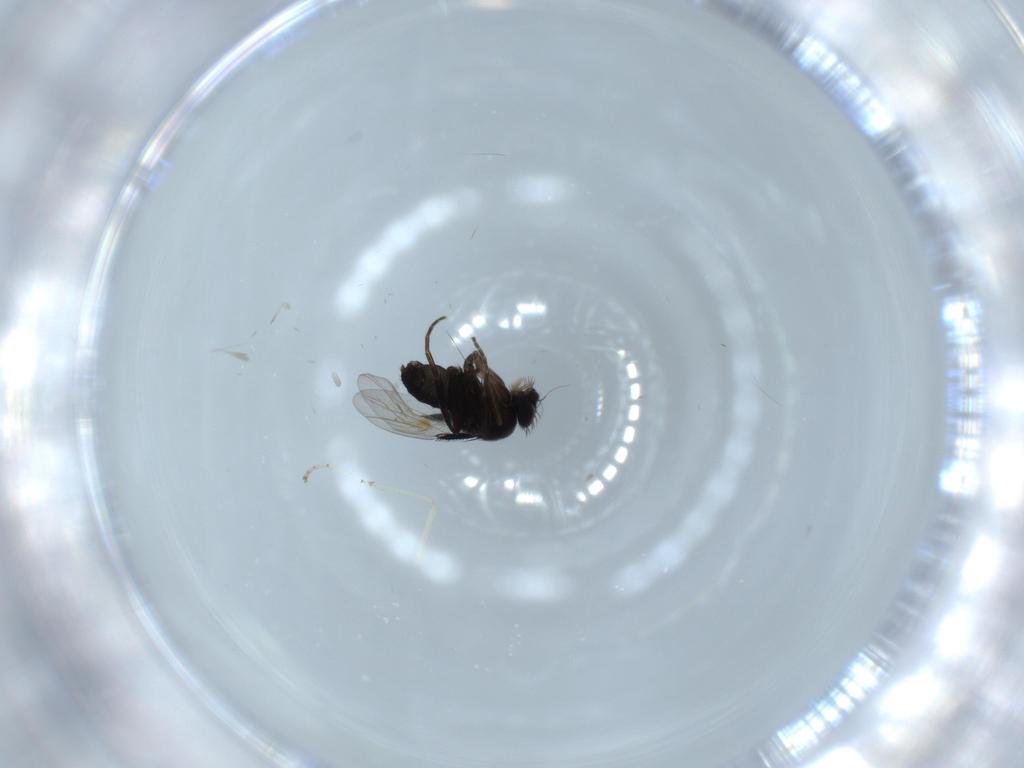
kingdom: Animalia
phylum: Arthropoda
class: Insecta
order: Diptera
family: Phoridae
